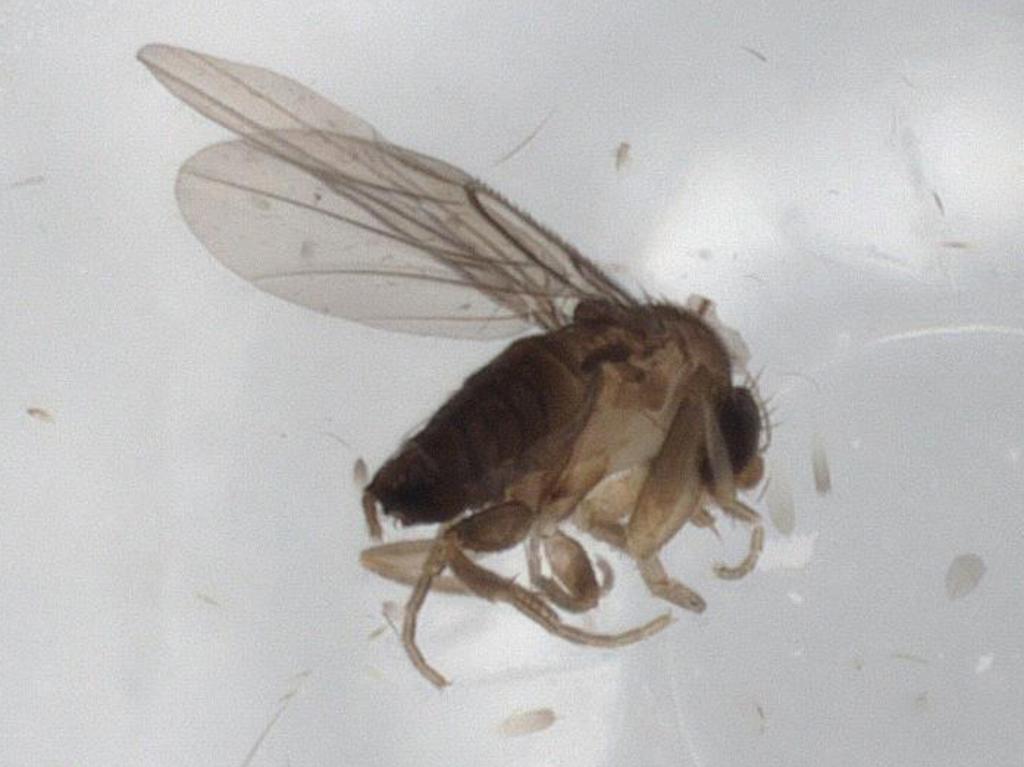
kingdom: Animalia
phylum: Arthropoda
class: Insecta
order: Diptera
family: Phoridae
